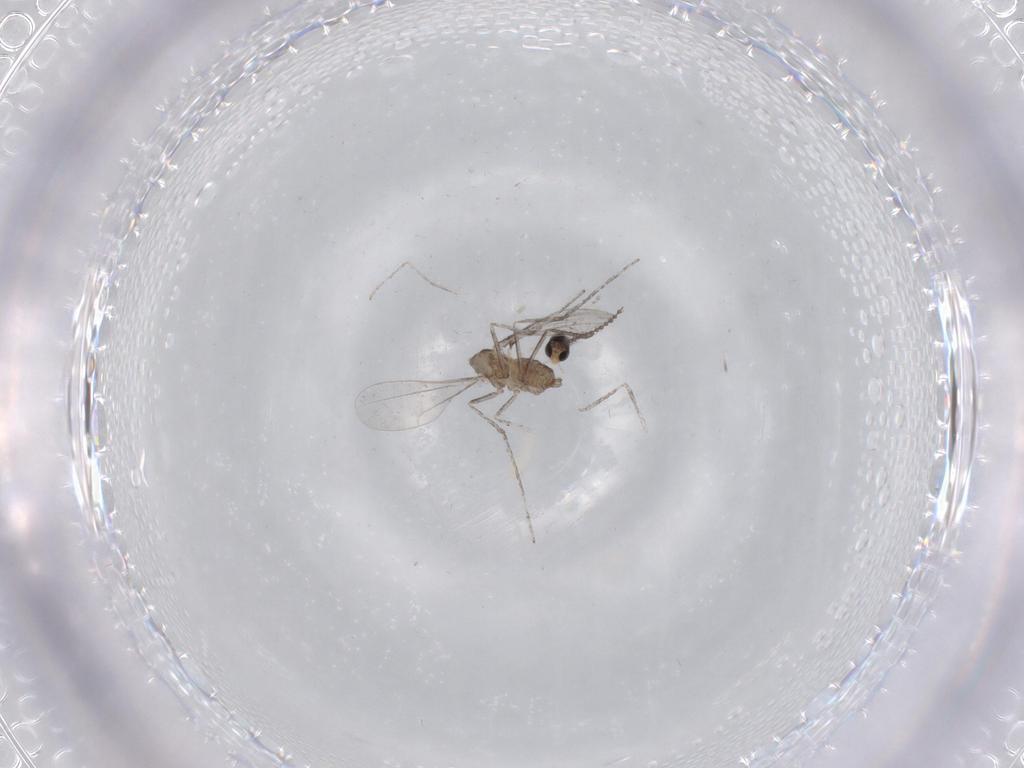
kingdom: Animalia
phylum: Arthropoda
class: Insecta
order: Diptera
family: Cecidomyiidae
